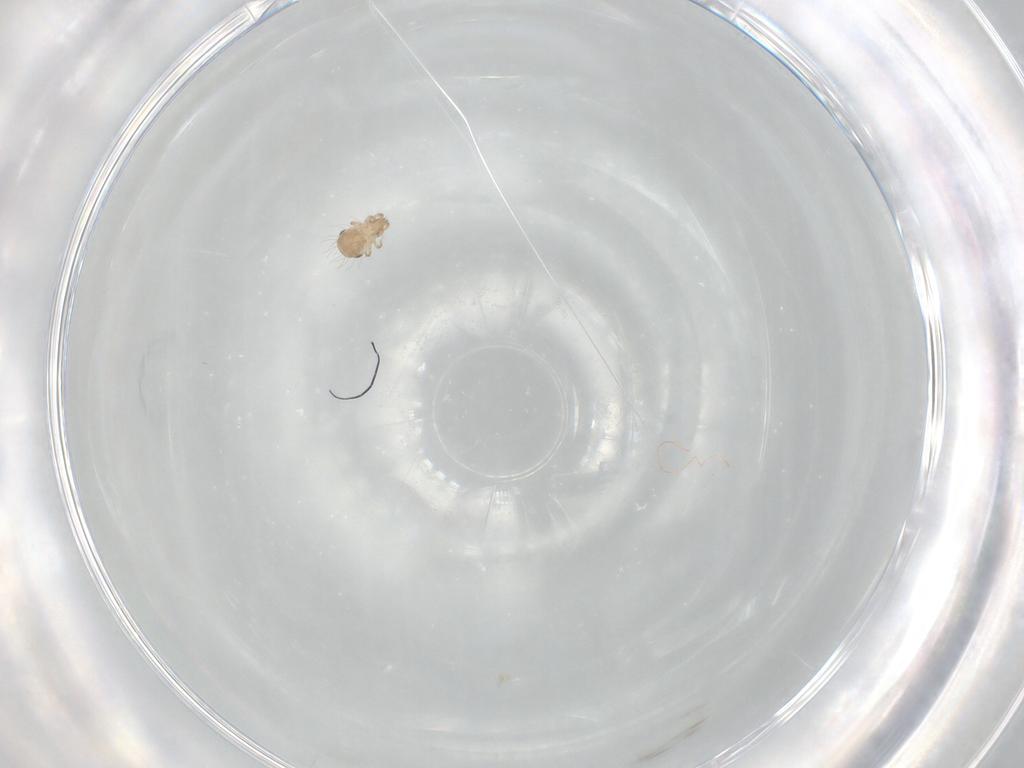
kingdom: Animalia
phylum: Arthropoda
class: Arachnida
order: Sarcoptiformes
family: Humerobatidae
